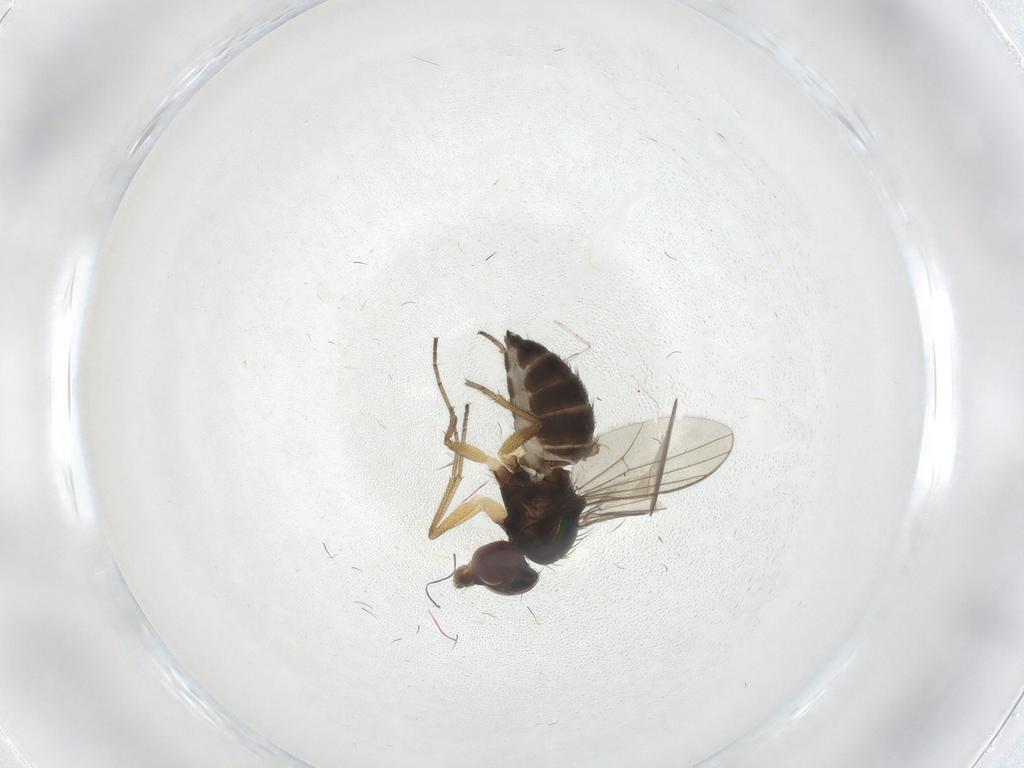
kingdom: Animalia
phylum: Arthropoda
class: Insecta
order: Diptera
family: Dolichopodidae
